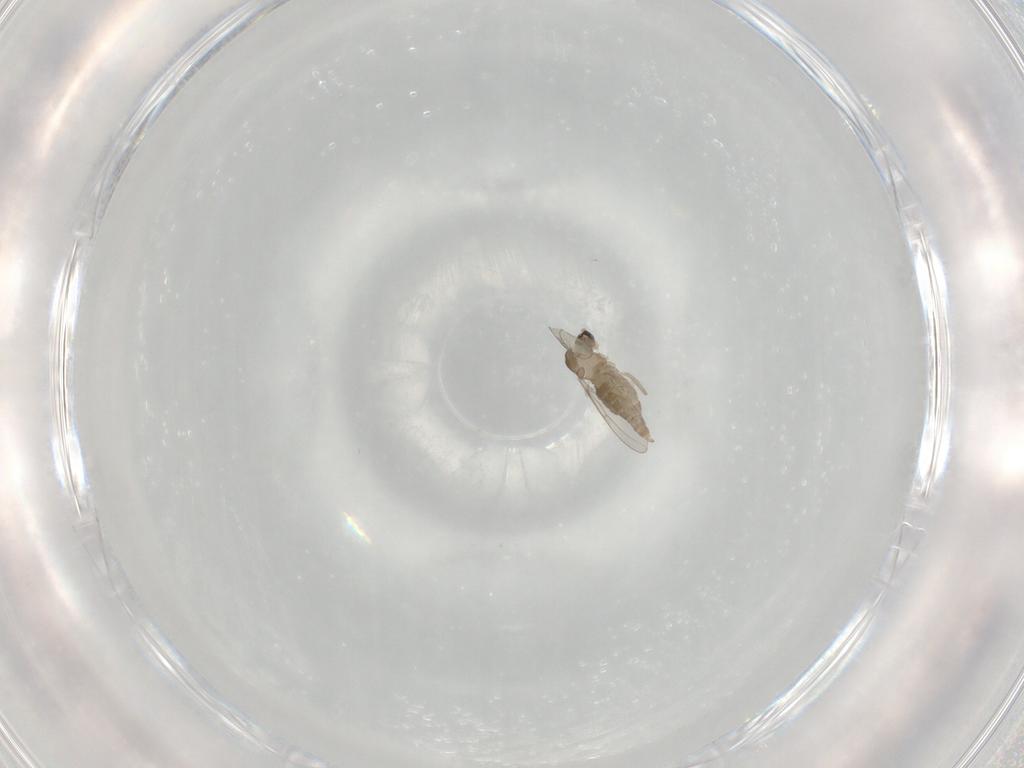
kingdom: Animalia
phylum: Arthropoda
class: Insecta
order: Diptera
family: Cecidomyiidae
